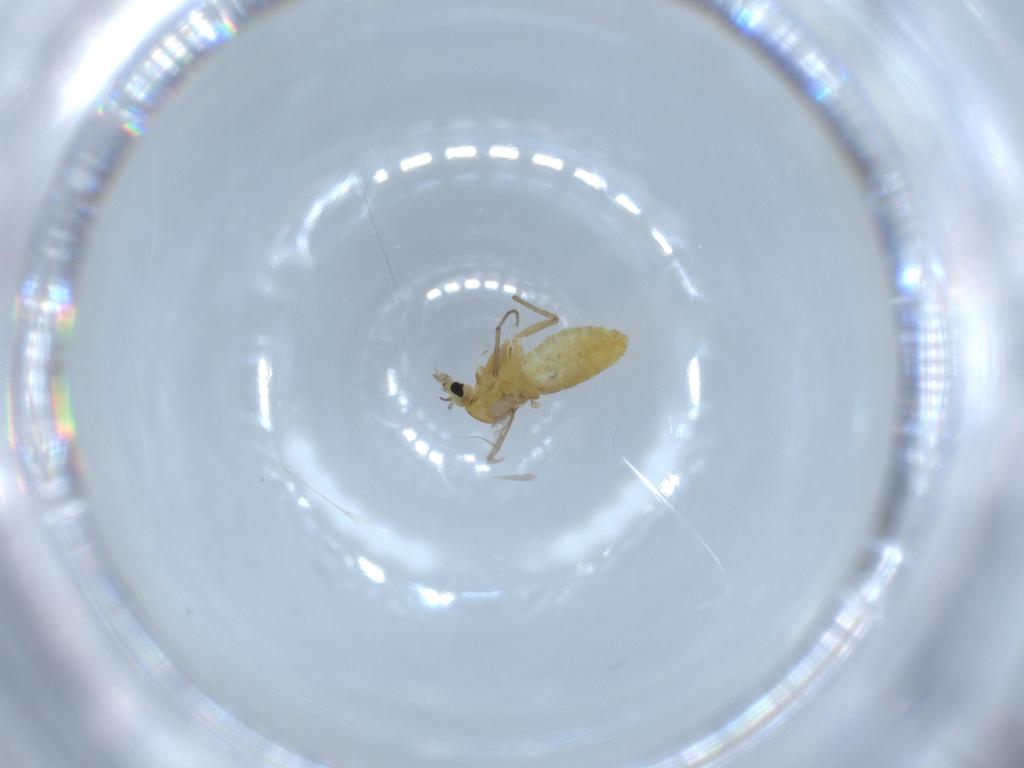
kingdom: Animalia
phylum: Arthropoda
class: Insecta
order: Diptera
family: Chironomidae
